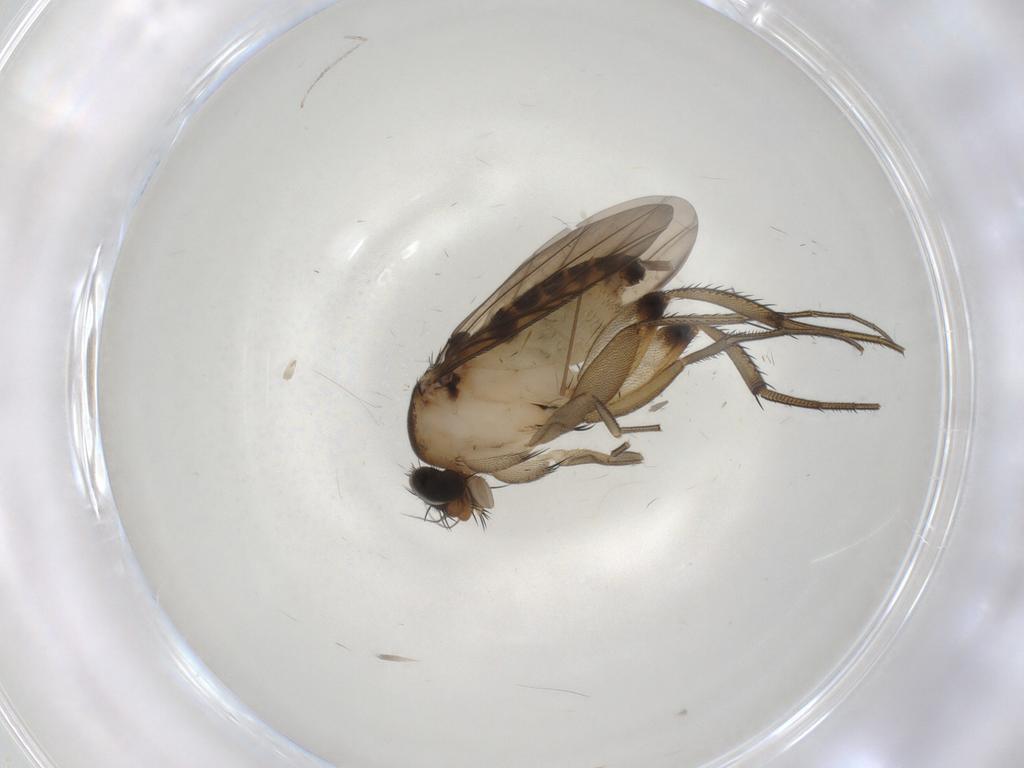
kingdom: Animalia
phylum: Arthropoda
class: Insecta
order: Diptera
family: Phoridae
